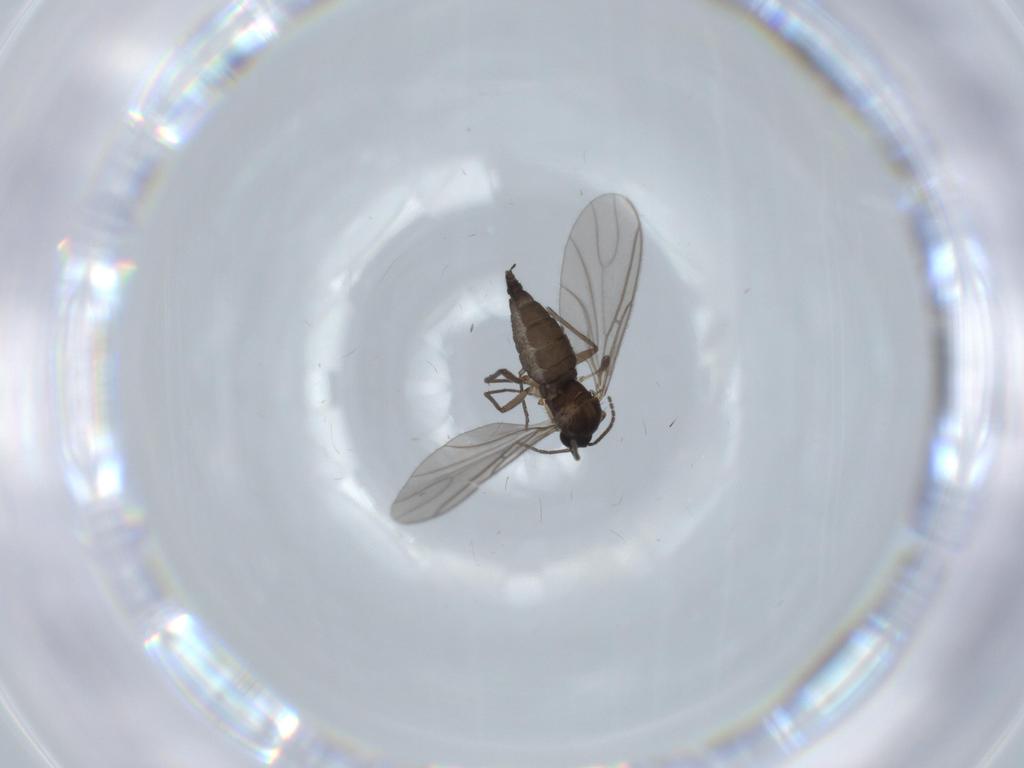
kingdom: Animalia
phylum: Arthropoda
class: Insecta
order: Diptera
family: Sciaridae
